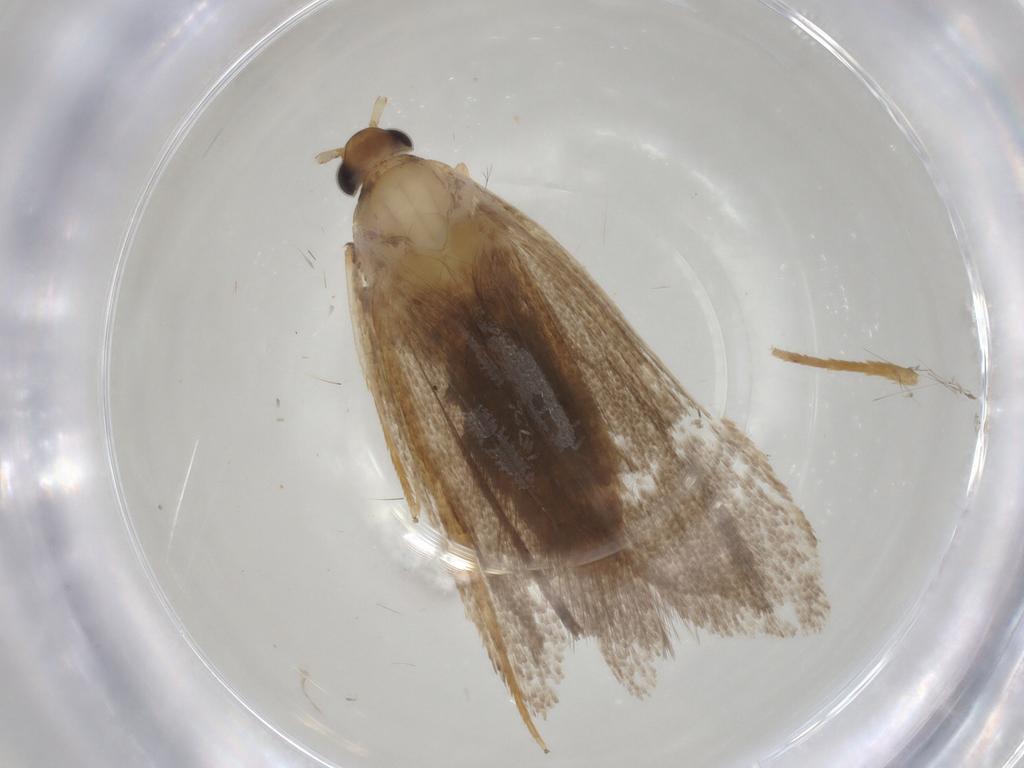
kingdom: Animalia
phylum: Arthropoda
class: Insecta
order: Lepidoptera
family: Lecithoceridae
